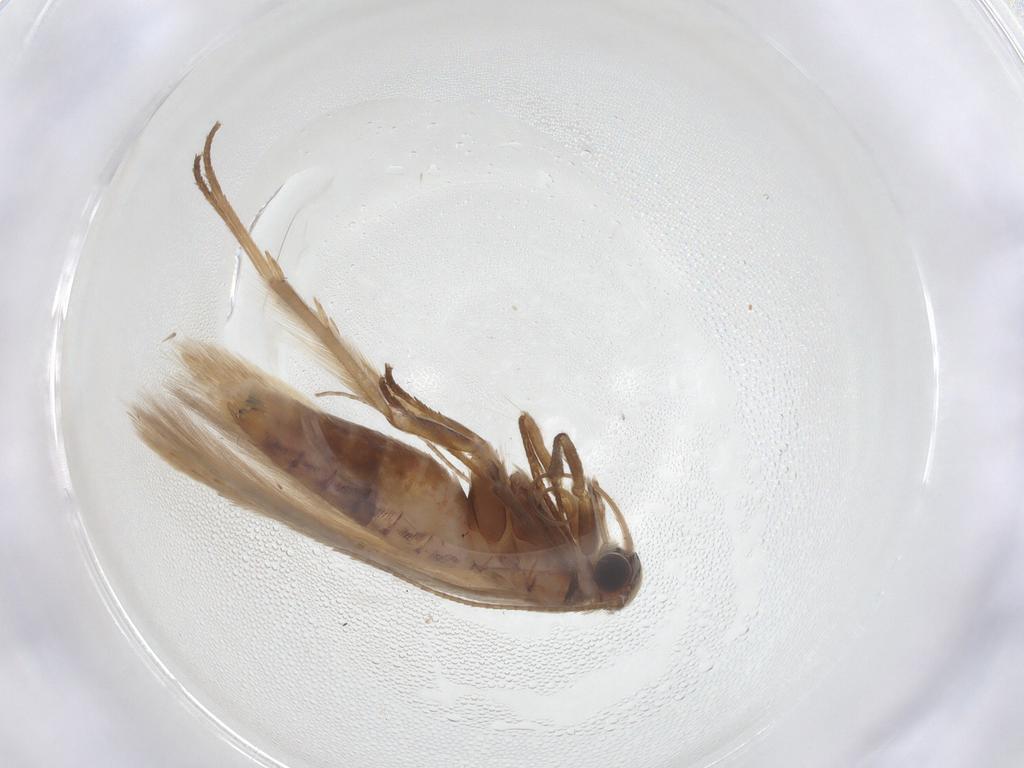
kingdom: Animalia
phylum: Arthropoda
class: Insecta
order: Lepidoptera
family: Scythrididae
